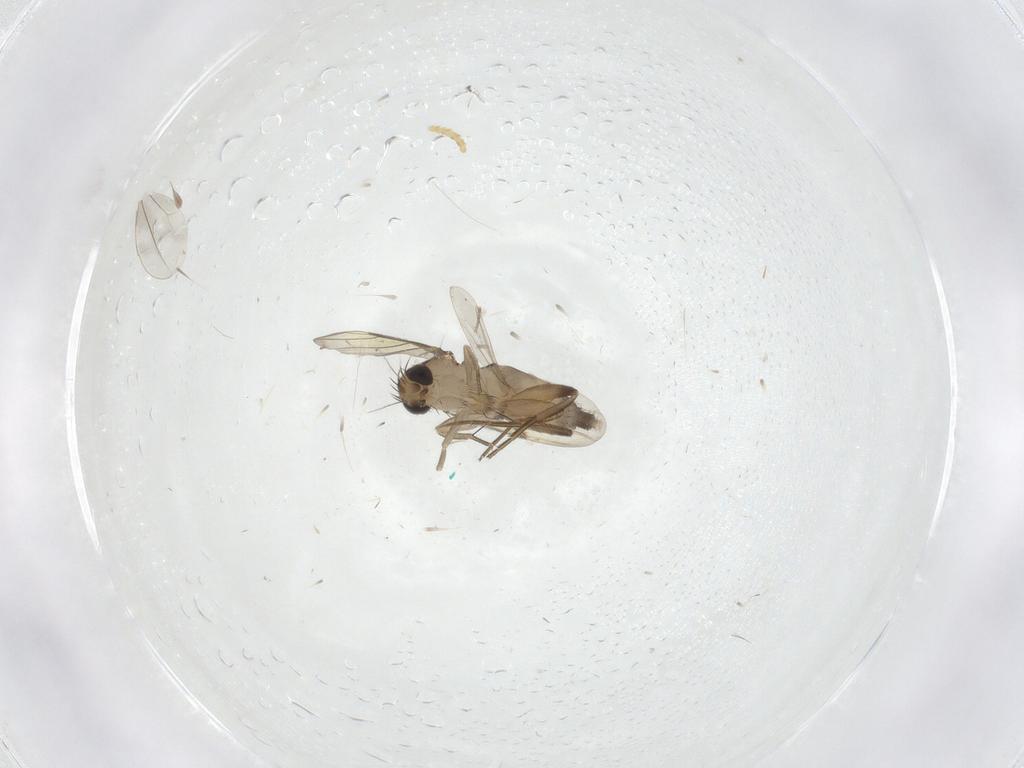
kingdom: Animalia
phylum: Arthropoda
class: Insecta
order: Diptera
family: Phoridae
